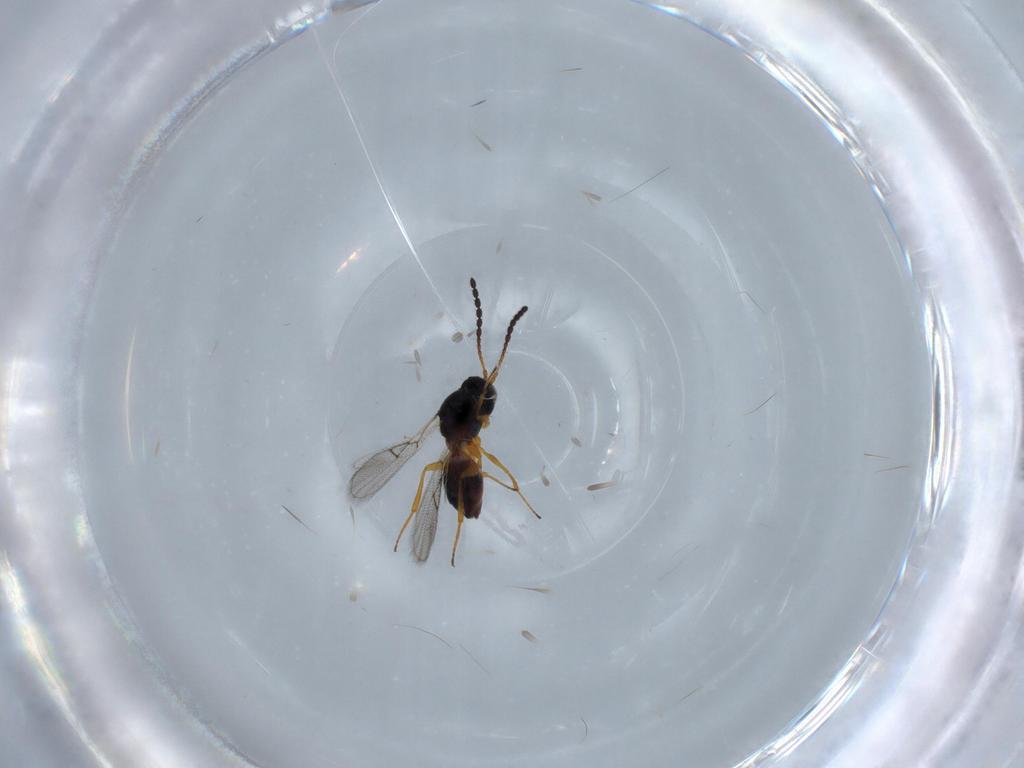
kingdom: Animalia
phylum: Arthropoda
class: Insecta
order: Hymenoptera
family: Figitidae
